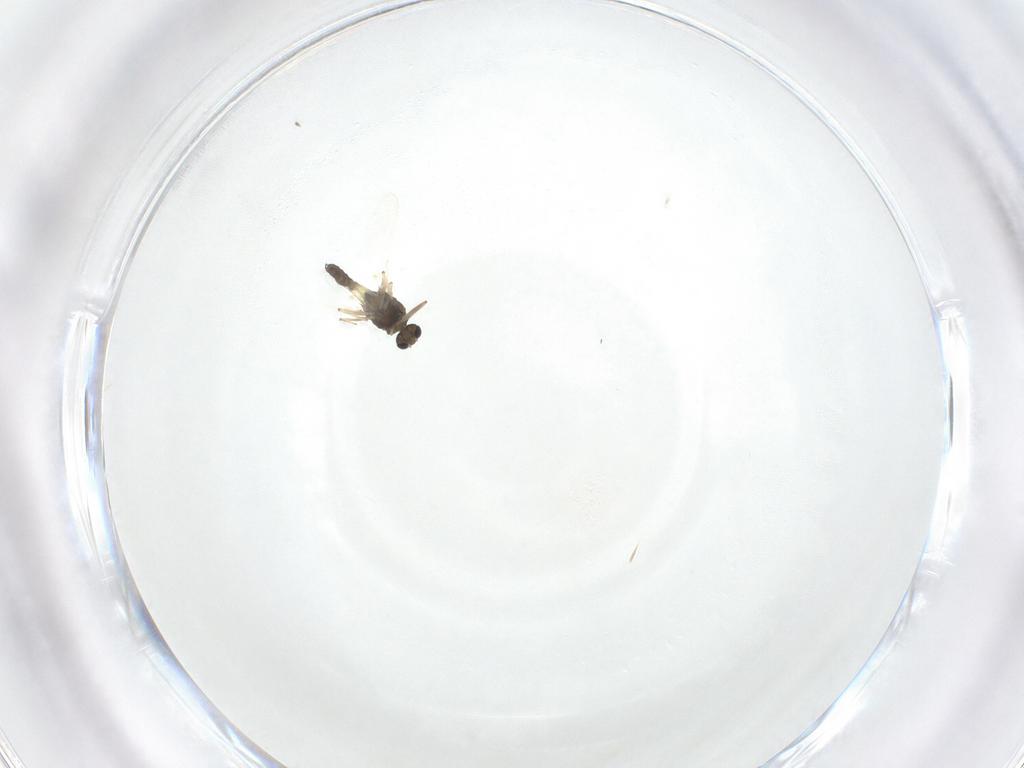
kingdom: Animalia
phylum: Arthropoda
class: Insecta
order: Diptera
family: Chironomidae
